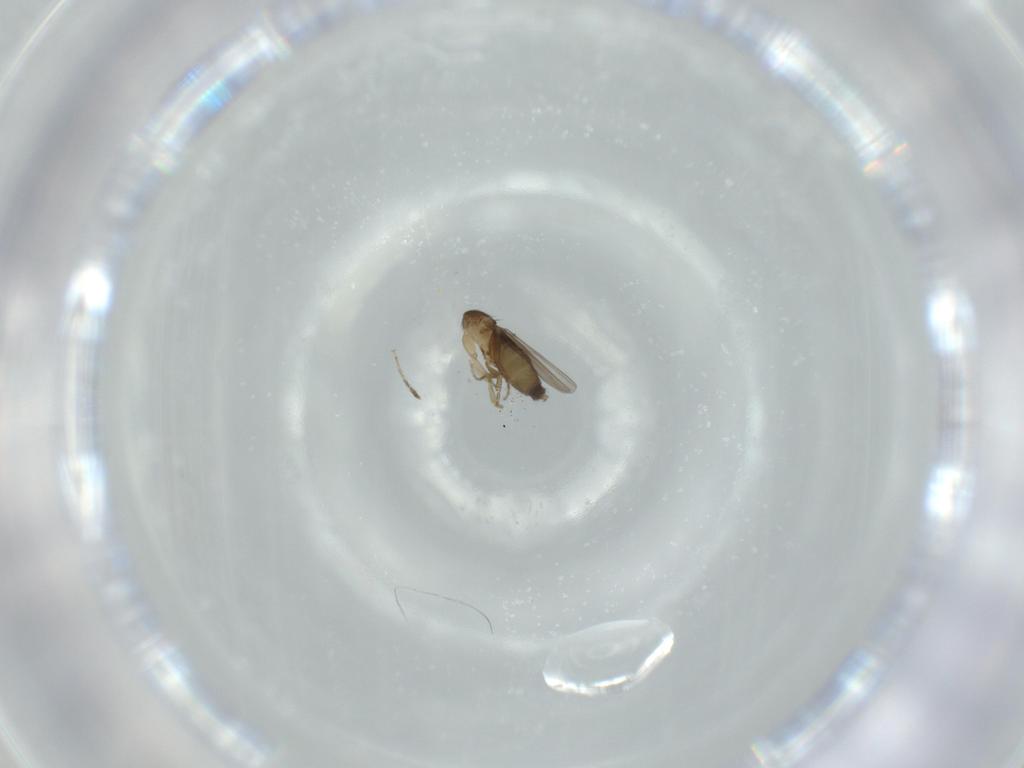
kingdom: Animalia
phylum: Arthropoda
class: Insecta
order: Diptera
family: Phoridae
